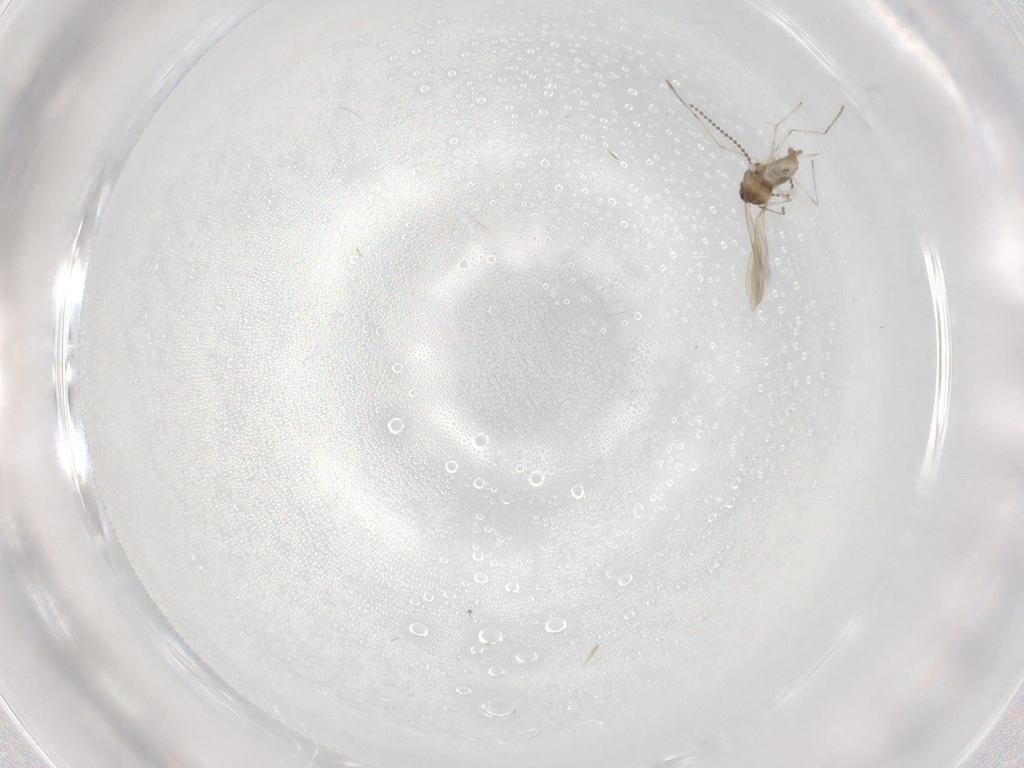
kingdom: Animalia
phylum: Arthropoda
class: Insecta
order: Diptera
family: Cecidomyiidae
